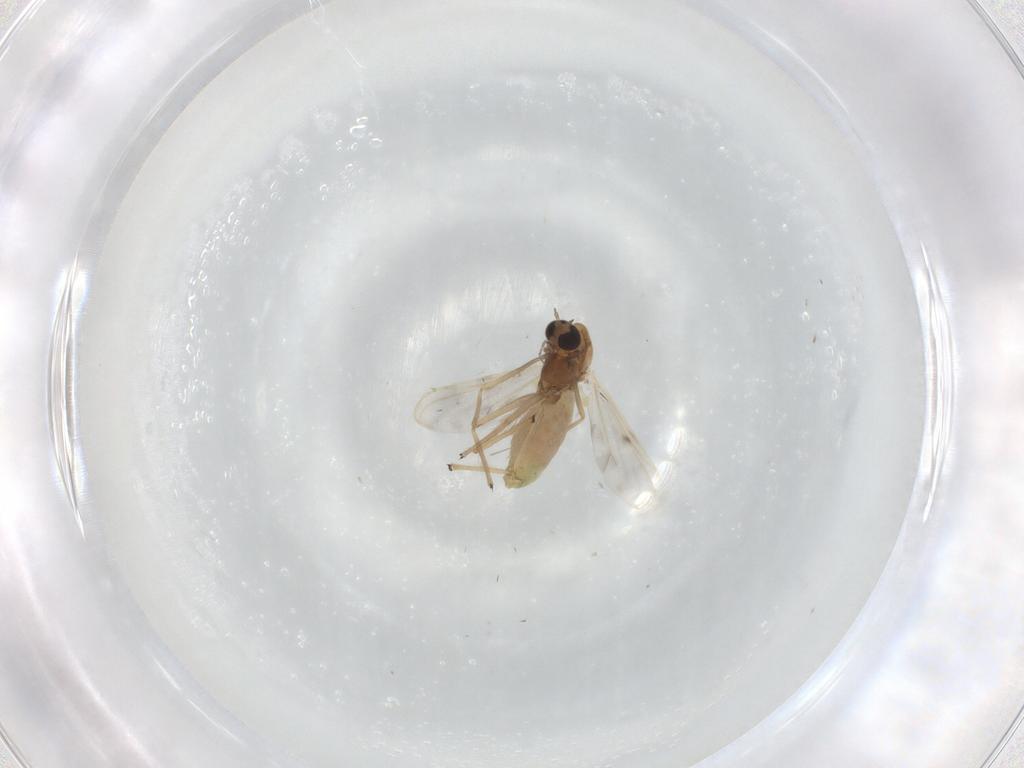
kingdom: Animalia
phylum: Arthropoda
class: Insecta
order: Diptera
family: Chironomidae
